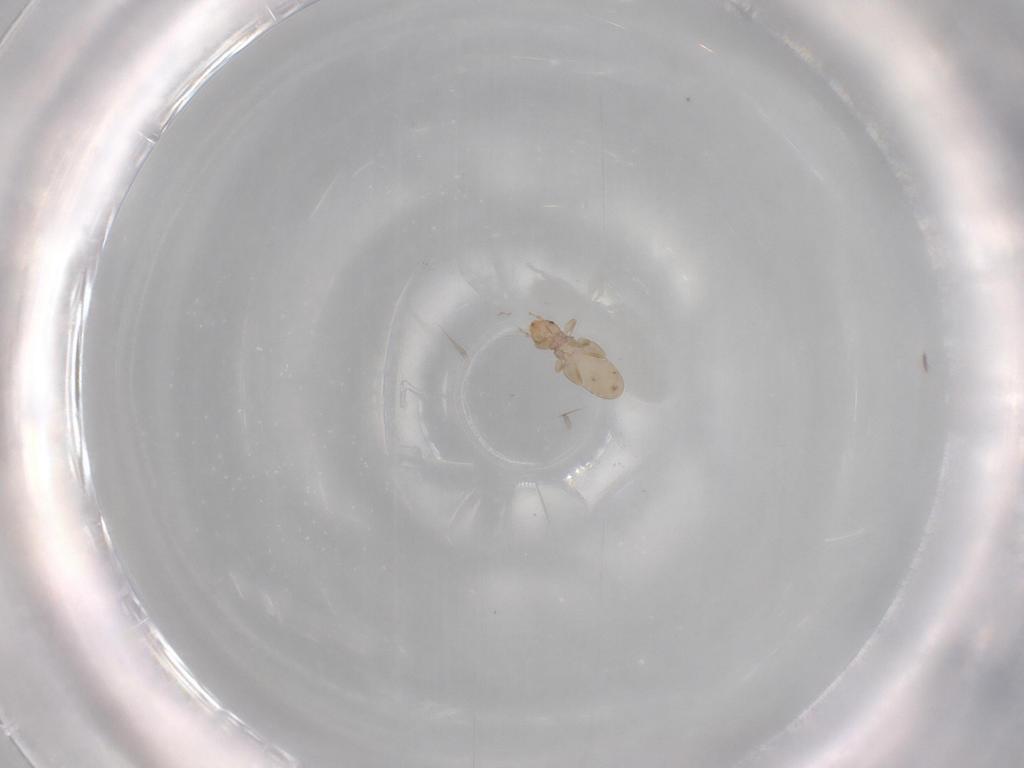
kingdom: Animalia
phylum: Arthropoda
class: Insecta
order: Psocodea
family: Liposcelididae
